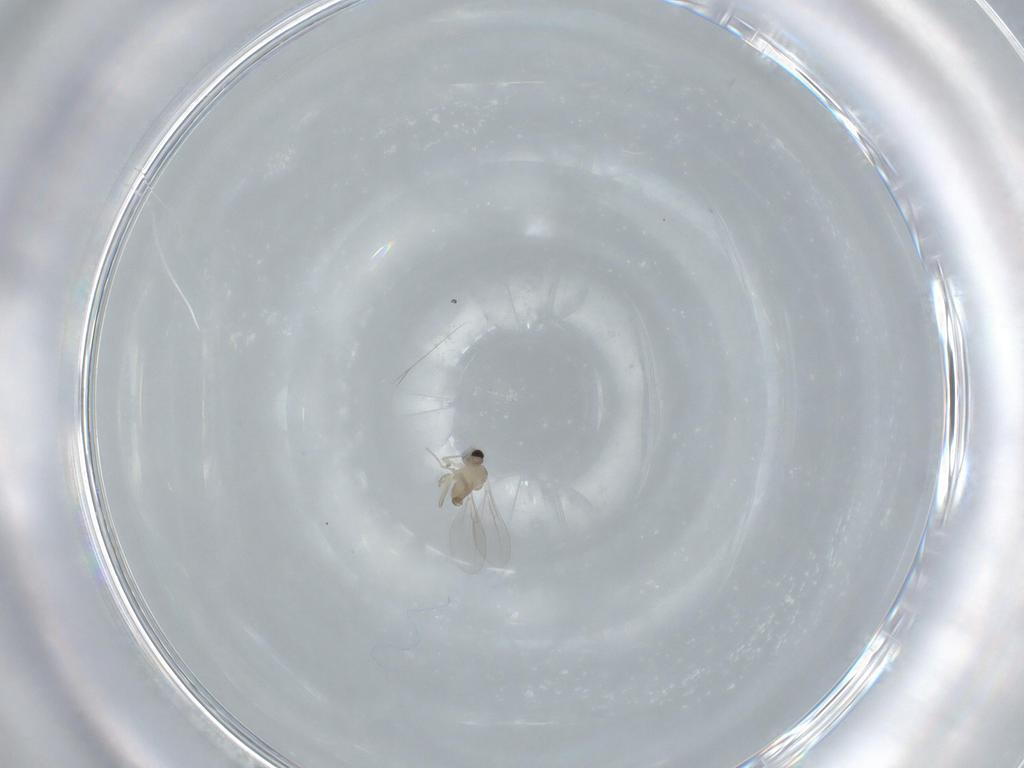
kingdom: Animalia
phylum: Arthropoda
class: Insecta
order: Diptera
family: Cecidomyiidae
